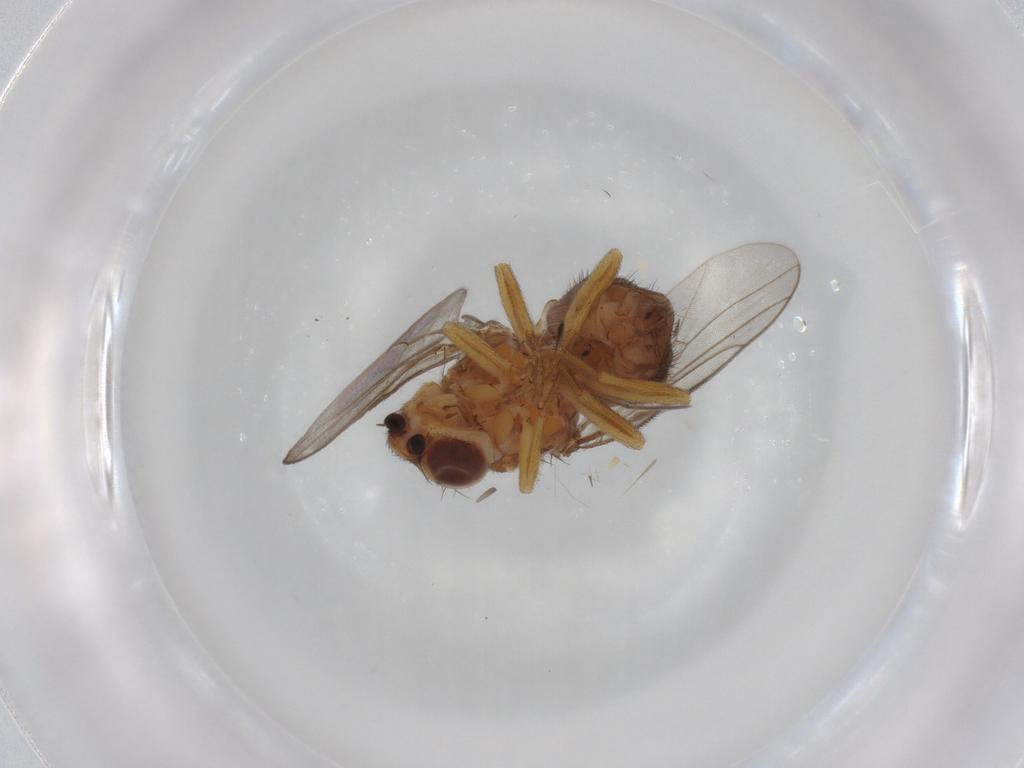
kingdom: Animalia
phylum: Arthropoda
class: Insecta
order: Diptera
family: Chloropidae
